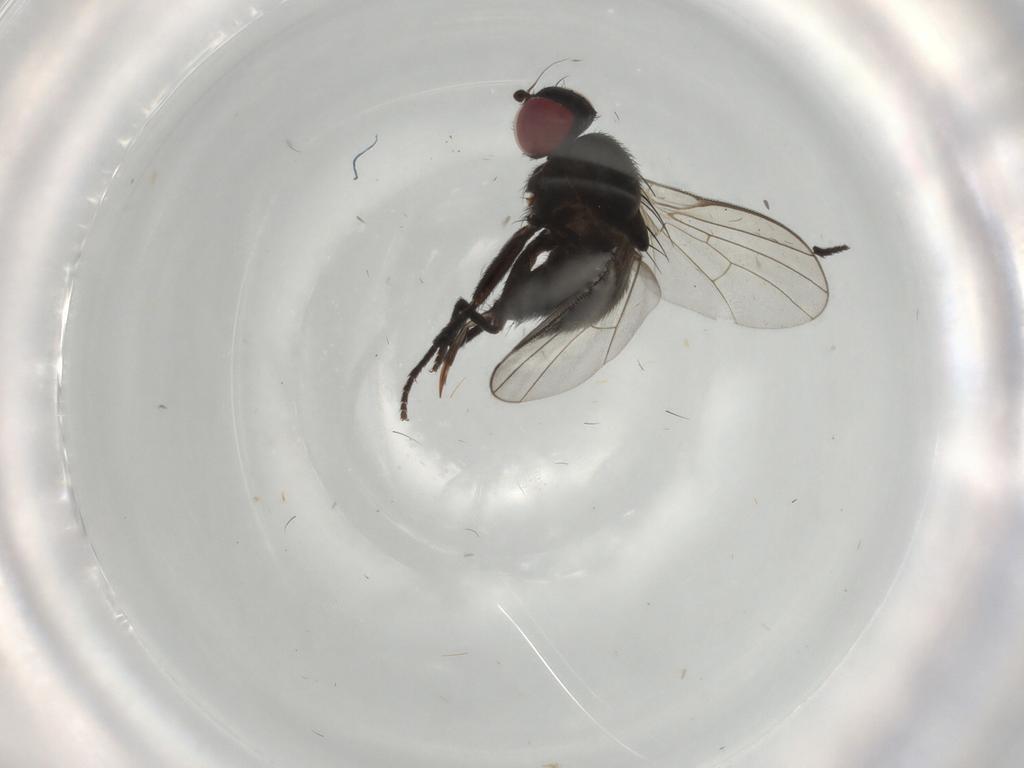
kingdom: Animalia
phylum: Arthropoda
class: Insecta
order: Diptera
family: Agromyzidae
